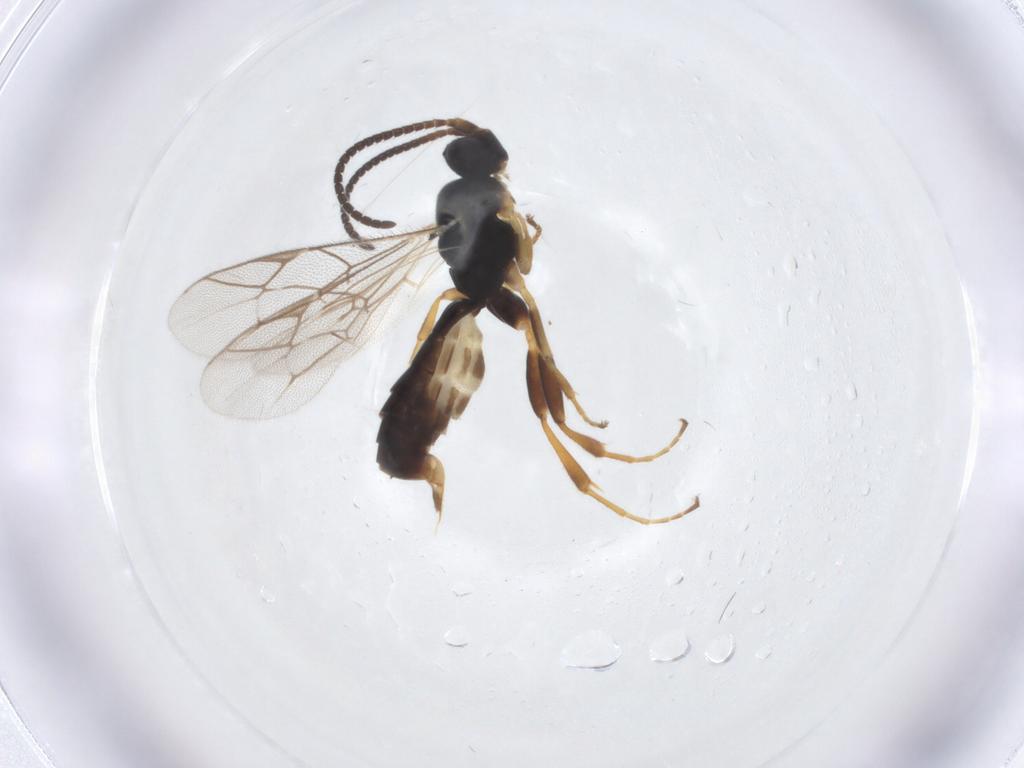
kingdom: Animalia
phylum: Arthropoda
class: Insecta
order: Hymenoptera
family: Ichneumonidae
